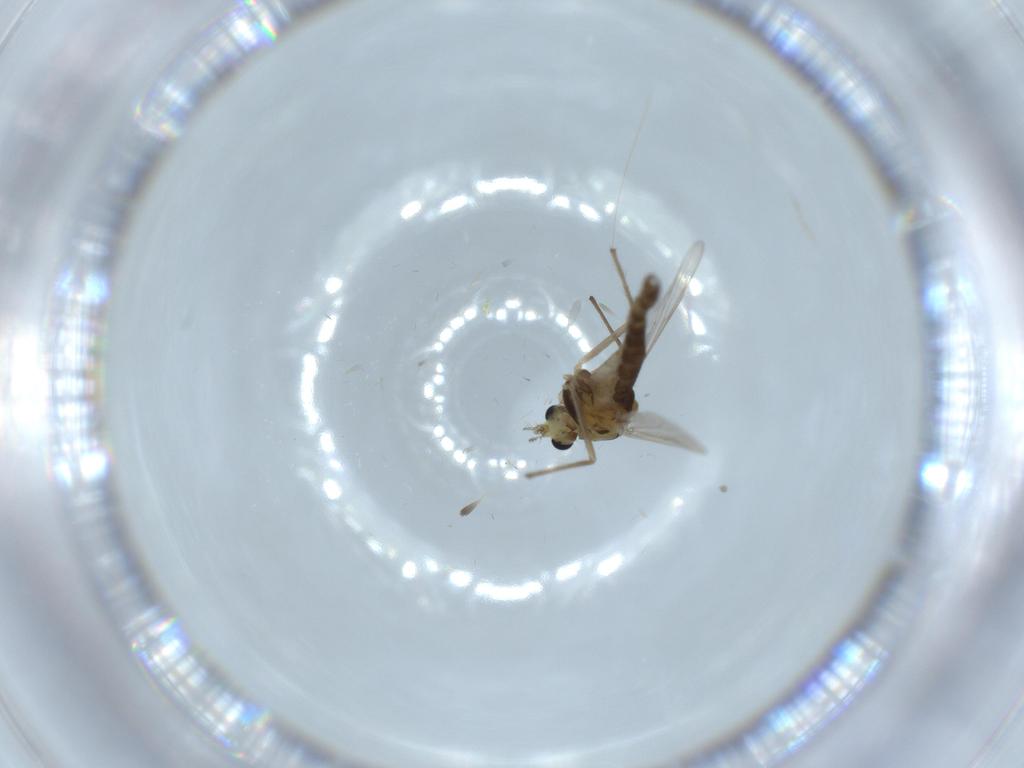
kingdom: Animalia
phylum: Arthropoda
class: Insecta
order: Diptera
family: Chironomidae
